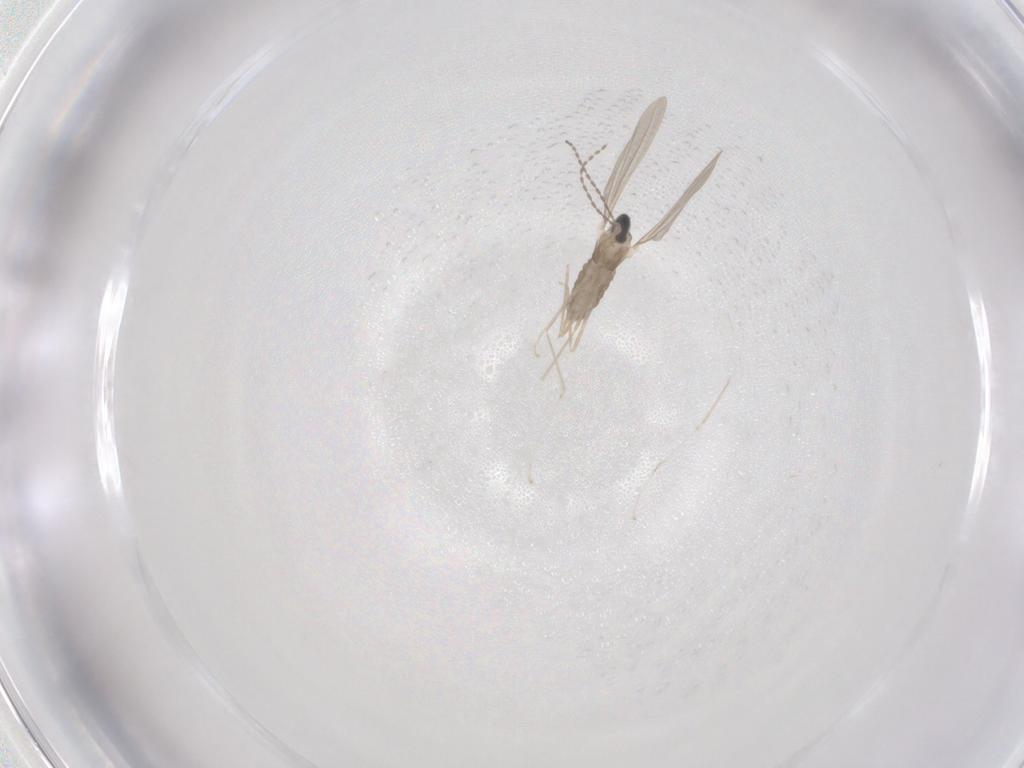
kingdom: Animalia
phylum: Arthropoda
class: Insecta
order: Diptera
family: Cecidomyiidae
